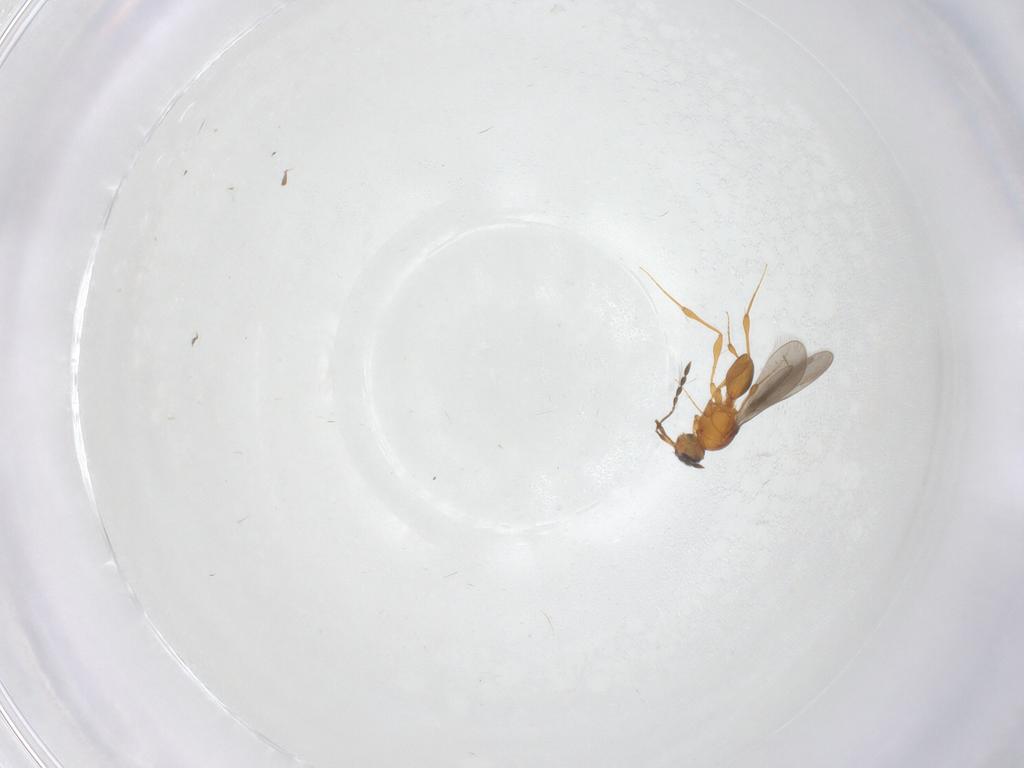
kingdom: Animalia
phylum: Arthropoda
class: Insecta
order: Hymenoptera
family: Platygastridae
